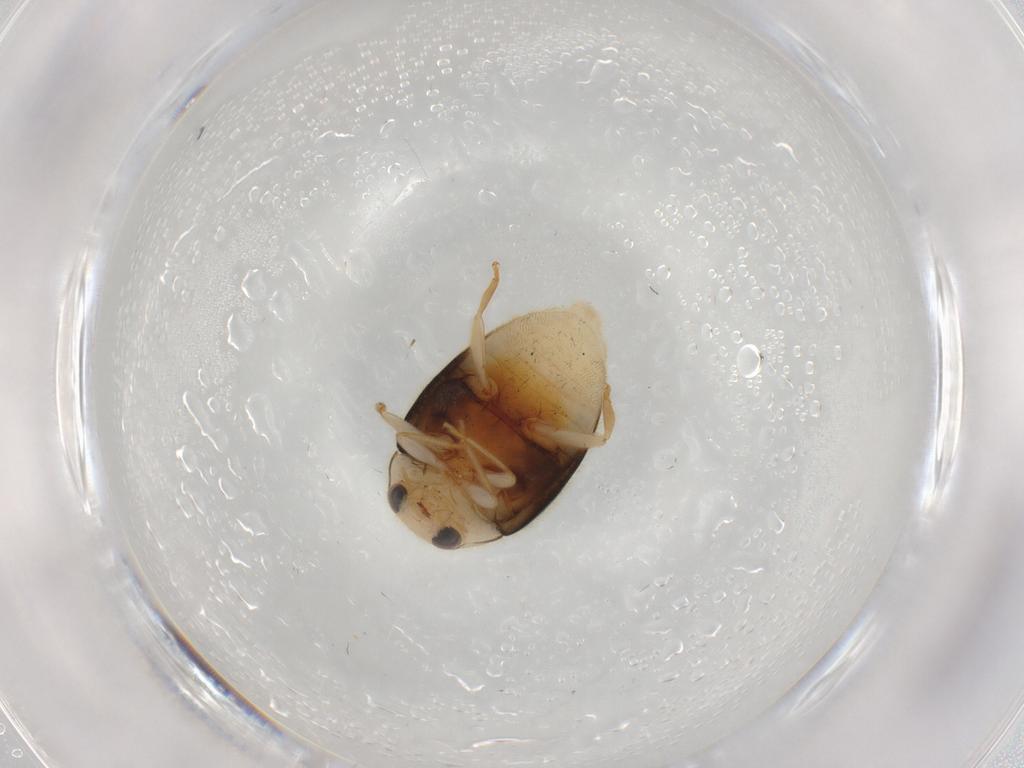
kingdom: Animalia
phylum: Arthropoda
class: Insecta
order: Coleoptera
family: Coccinellidae
